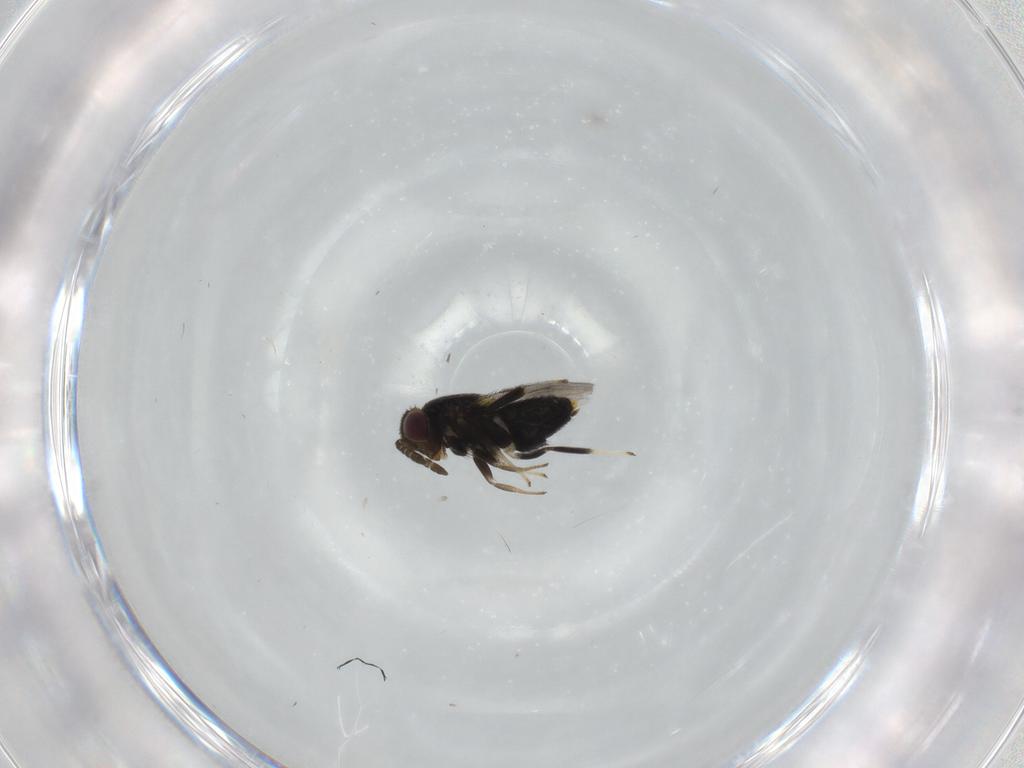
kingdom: Animalia
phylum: Arthropoda
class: Insecta
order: Hymenoptera
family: Aphelinidae
